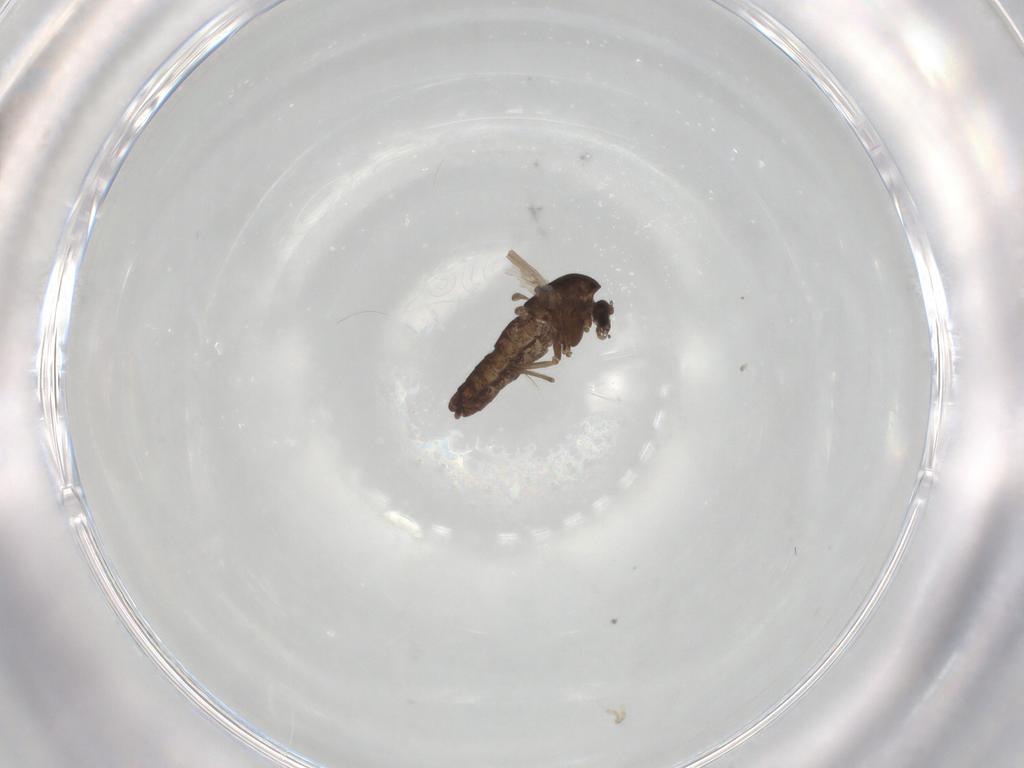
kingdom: Animalia
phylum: Arthropoda
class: Insecta
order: Diptera
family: Chironomidae
